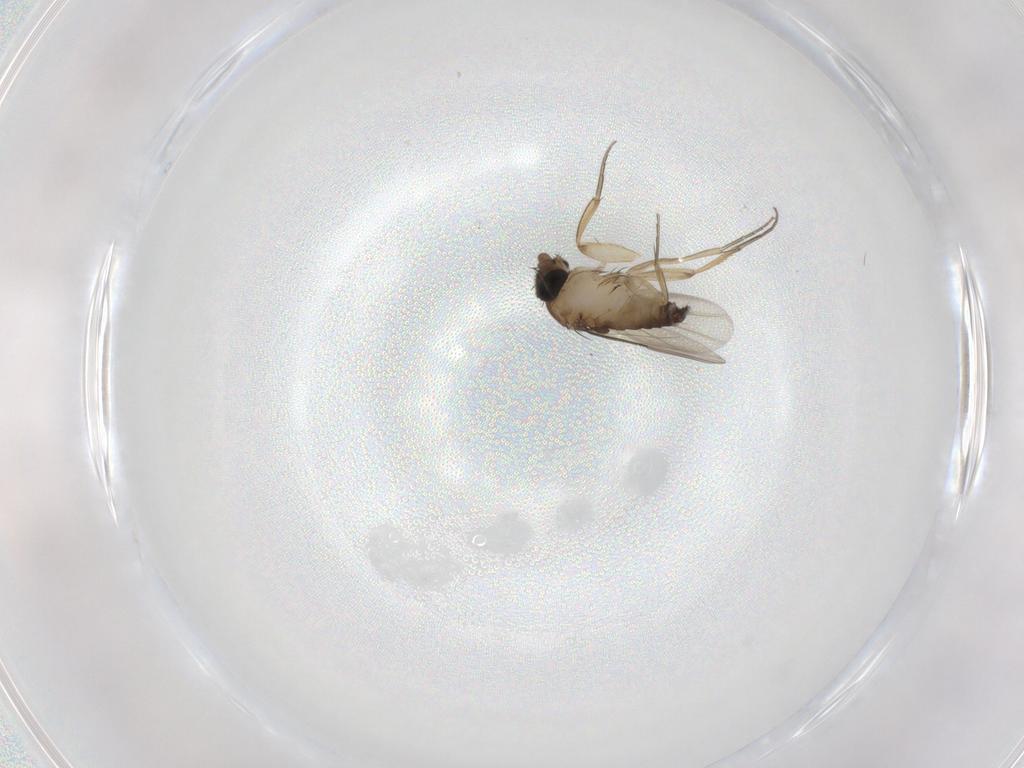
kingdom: Animalia
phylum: Arthropoda
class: Insecta
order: Diptera
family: Phoridae
